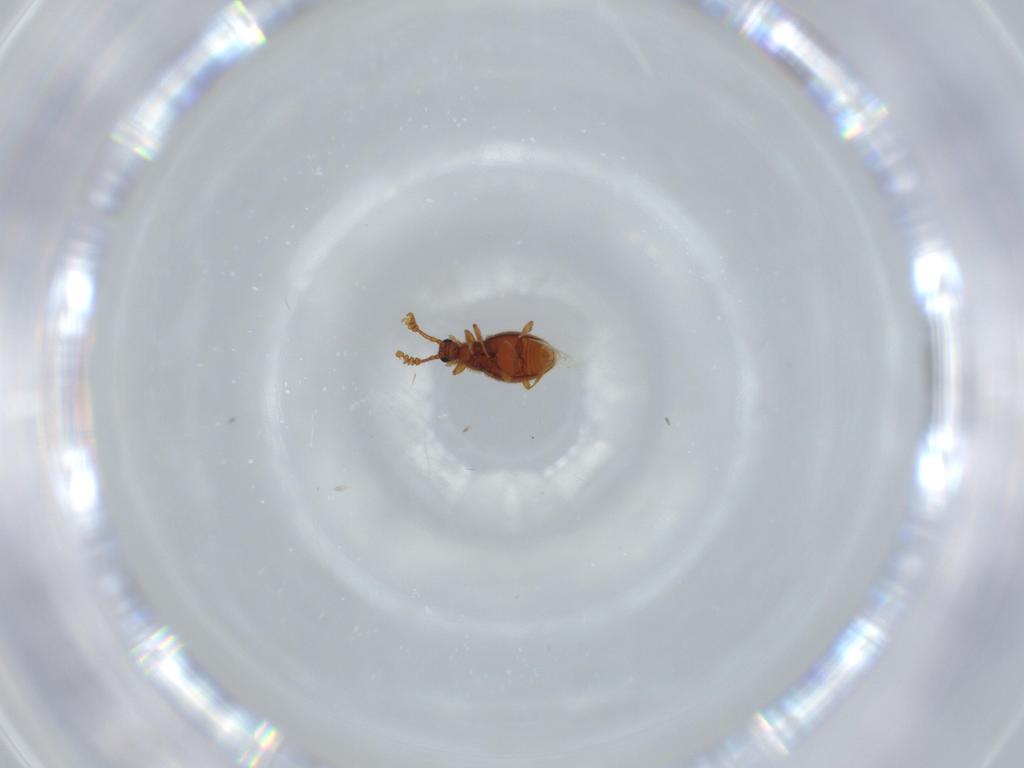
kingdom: Animalia
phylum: Arthropoda
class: Insecta
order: Coleoptera
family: Staphylinidae
